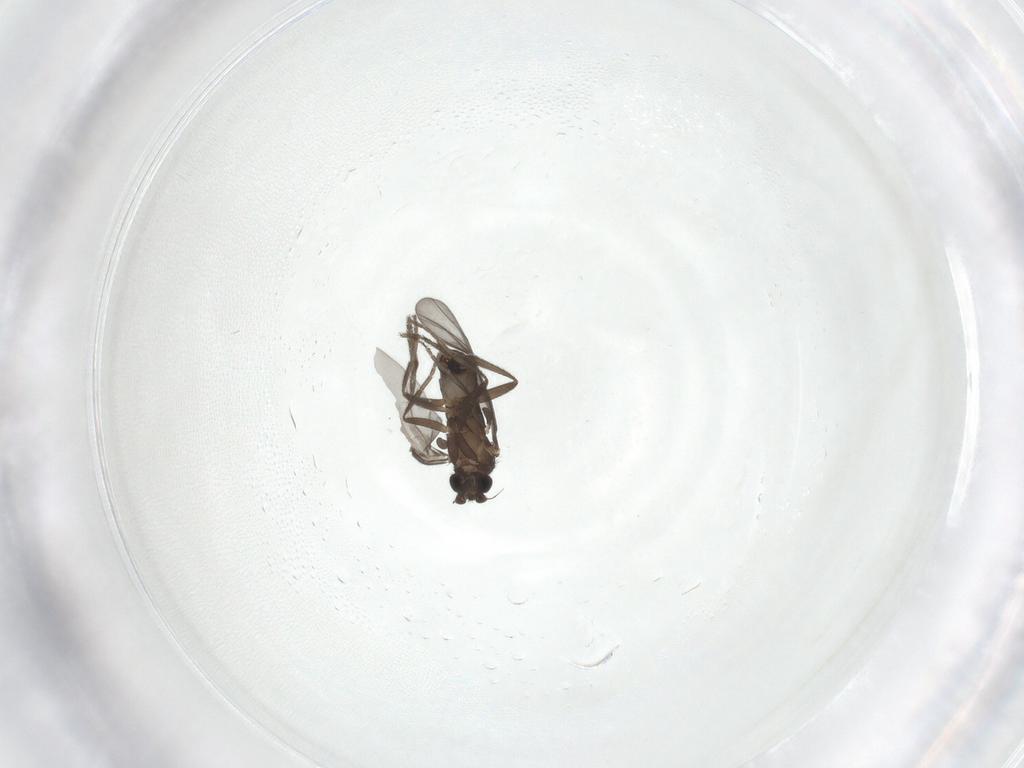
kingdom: Animalia
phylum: Arthropoda
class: Insecta
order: Diptera
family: Phoridae
